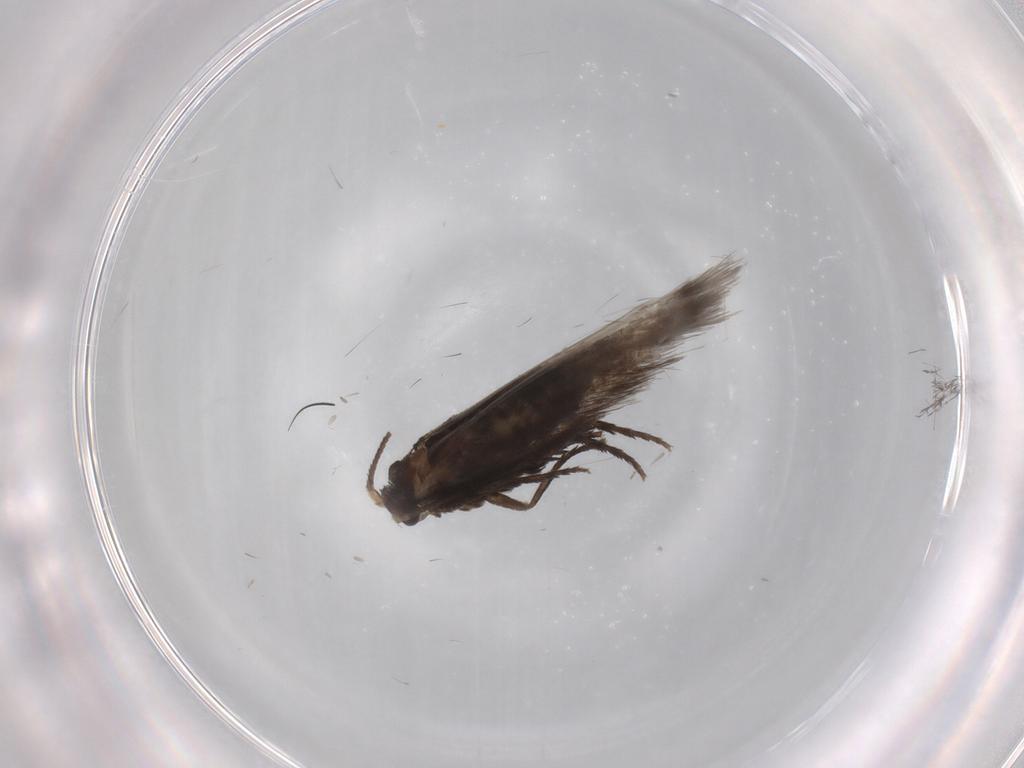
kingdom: Animalia
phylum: Arthropoda
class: Insecta
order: Lepidoptera
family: Nepticulidae
